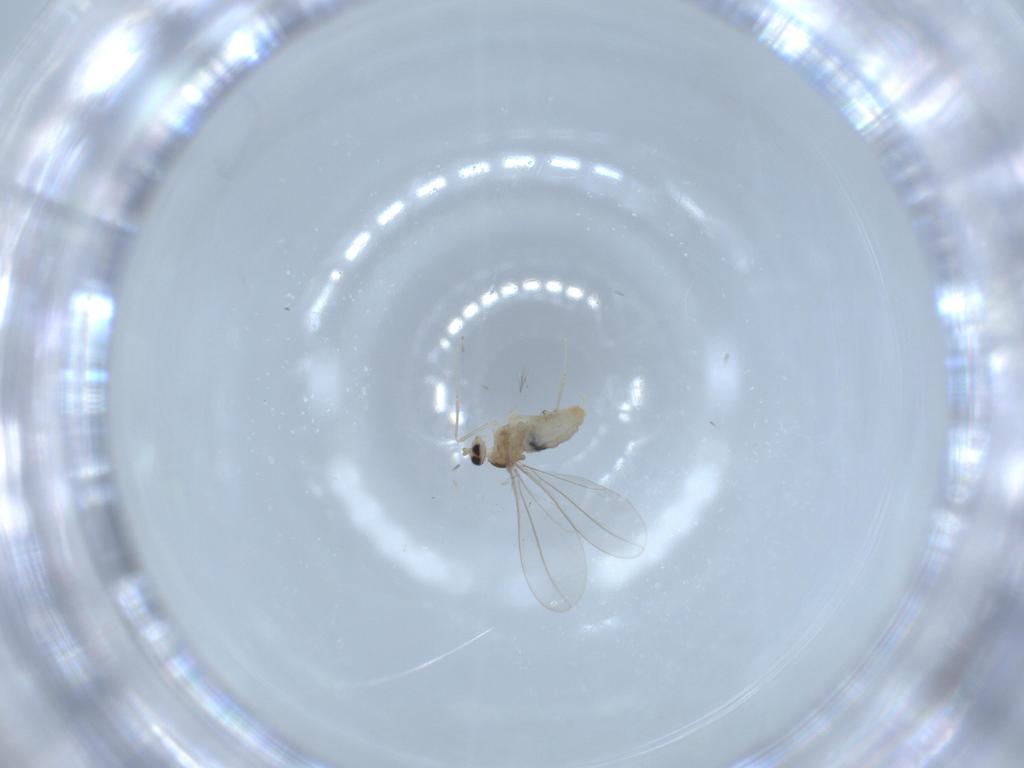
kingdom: Animalia
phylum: Arthropoda
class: Insecta
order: Diptera
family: Cecidomyiidae
